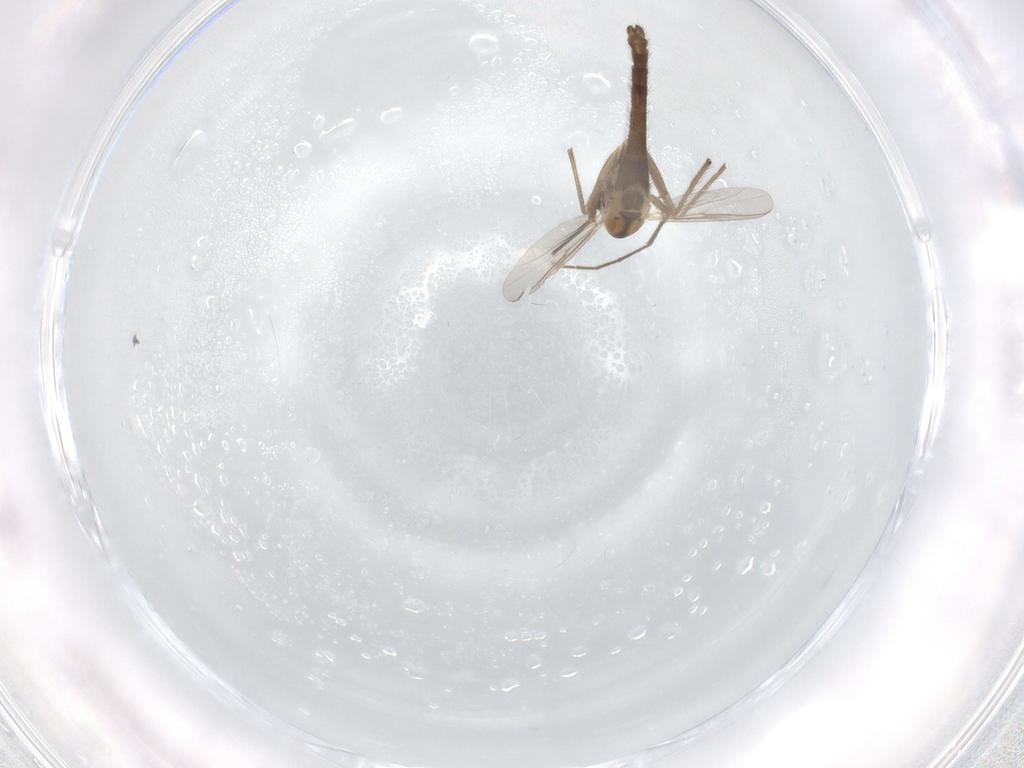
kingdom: Animalia
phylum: Arthropoda
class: Insecta
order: Diptera
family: Chironomidae
